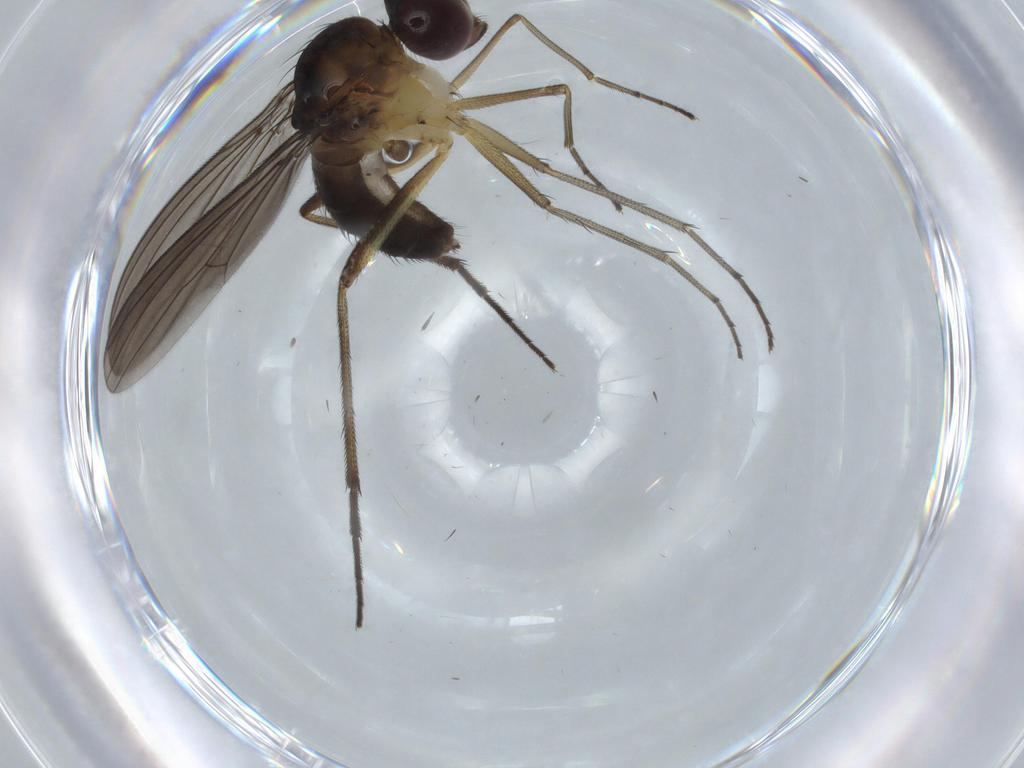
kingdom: Animalia
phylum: Arthropoda
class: Insecta
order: Diptera
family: Dolichopodidae
